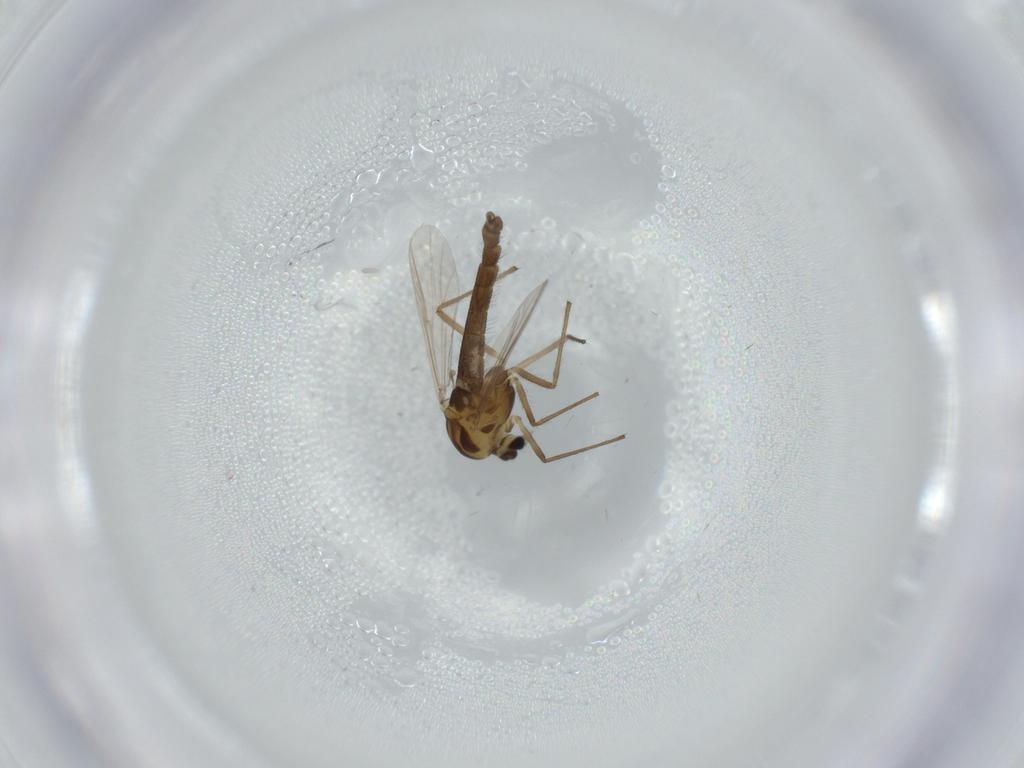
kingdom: Animalia
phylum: Arthropoda
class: Insecta
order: Diptera
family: Chironomidae
